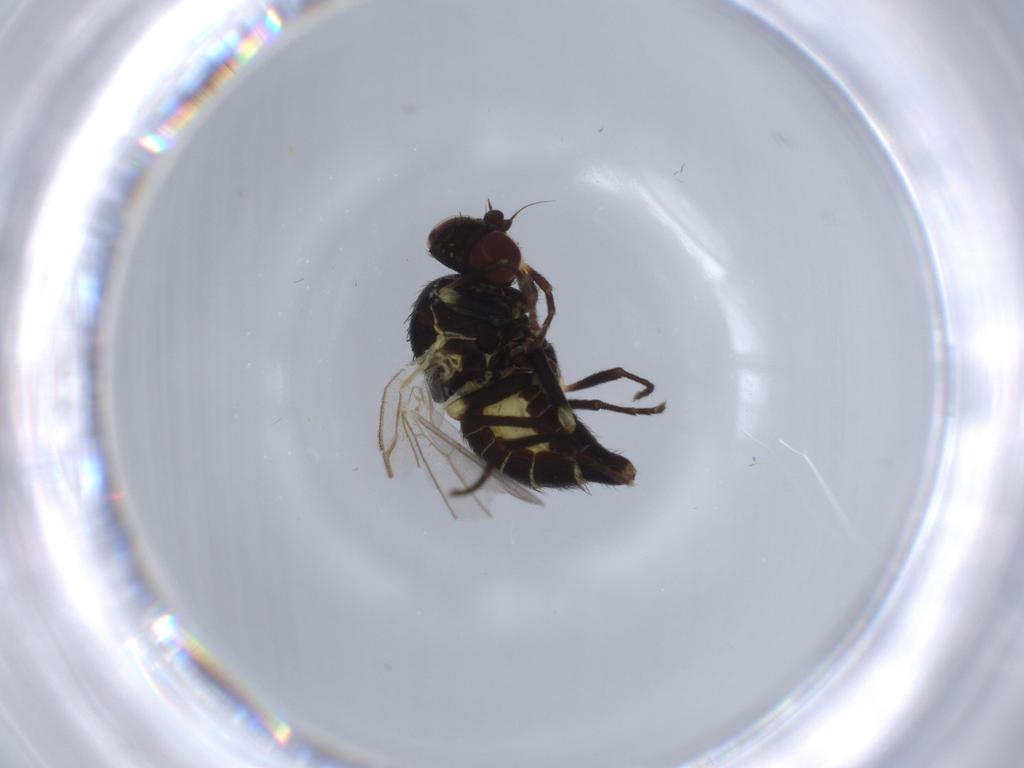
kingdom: Animalia
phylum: Arthropoda
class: Insecta
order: Diptera
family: Agromyzidae
